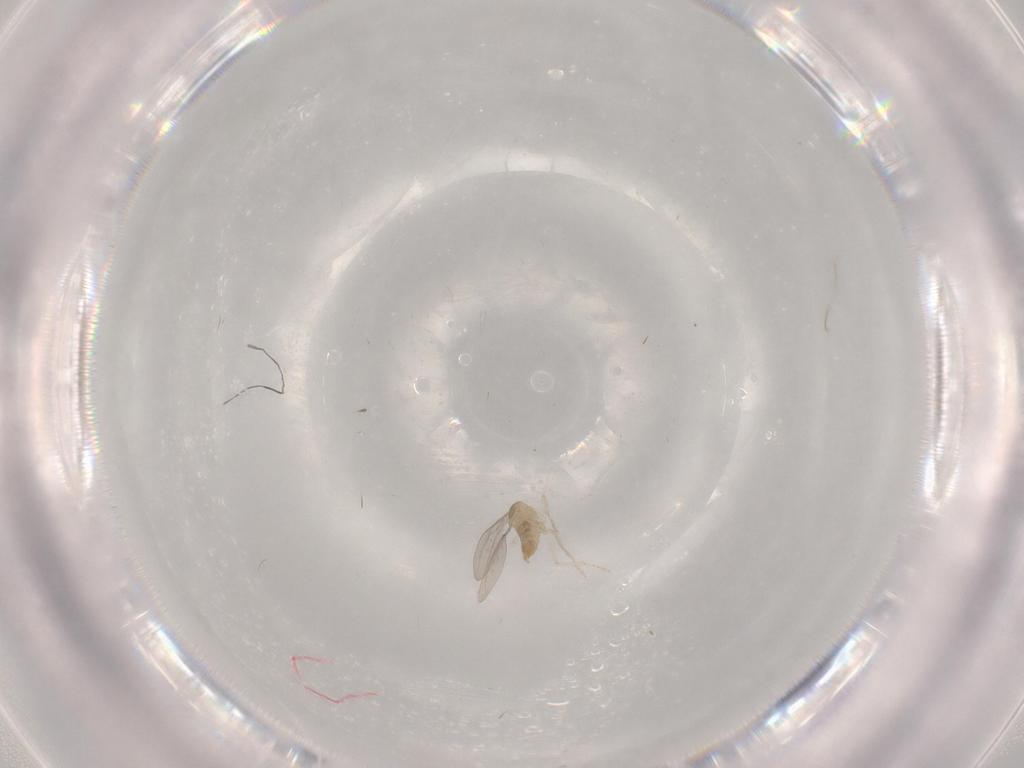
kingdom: Animalia
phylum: Arthropoda
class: Insecta
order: Diptera
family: Cecidomyiidae
